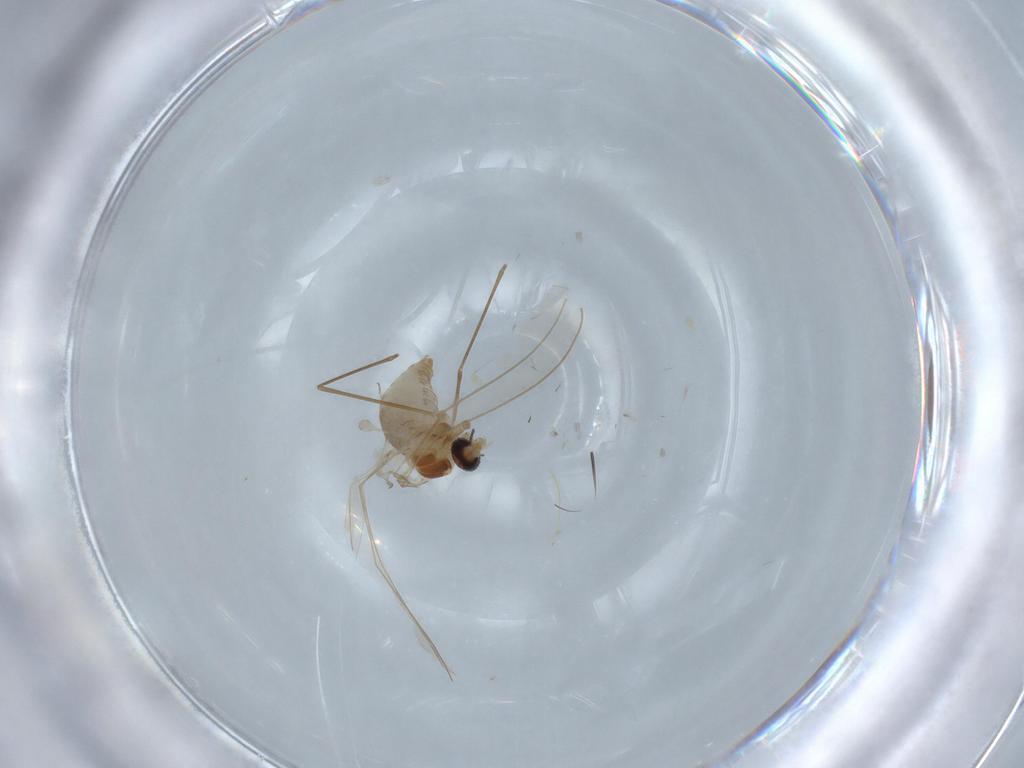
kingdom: Animalia
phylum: Arthropoda
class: Insecta
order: Diptera
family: Cecidomyiidae
